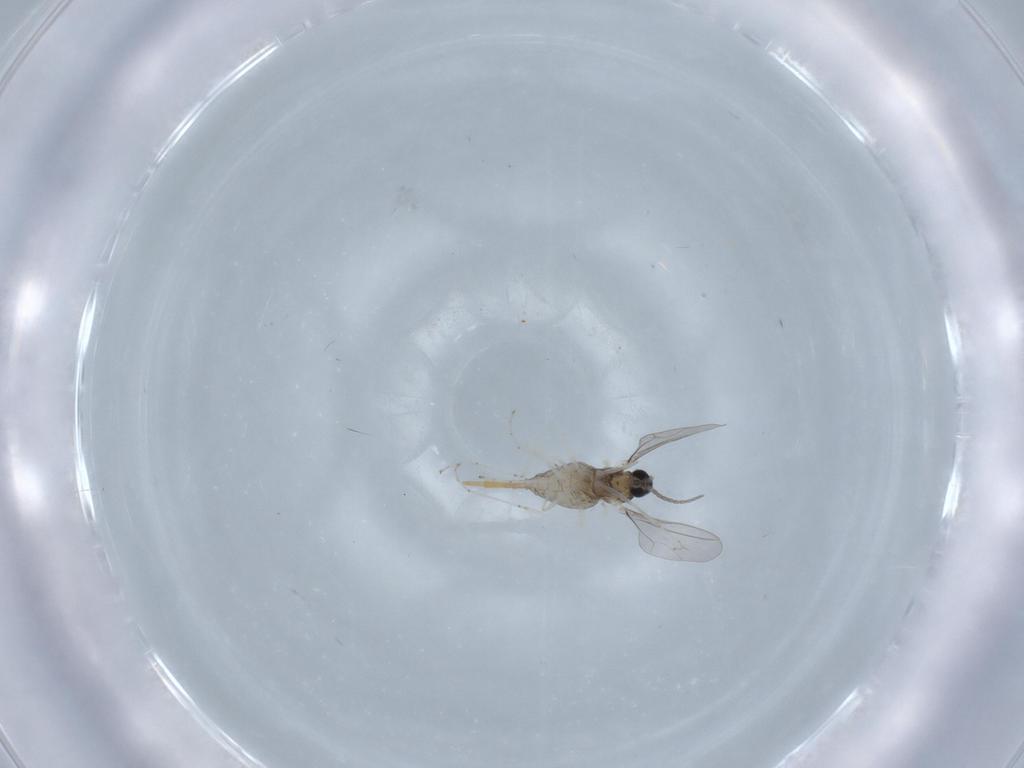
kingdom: Animalia
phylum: Arthropoda
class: Insecta
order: Diptera
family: Cecidomyiidae
